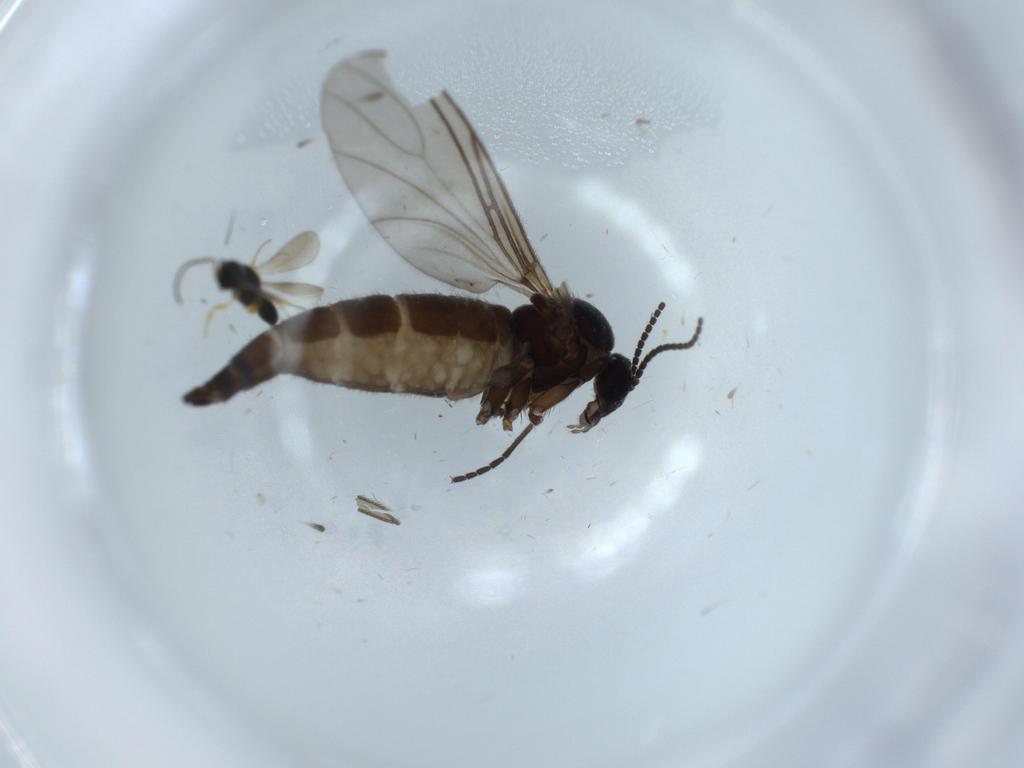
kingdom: Animalia
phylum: Arthropoda
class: Insecta
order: Diptera
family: Sciaridae
